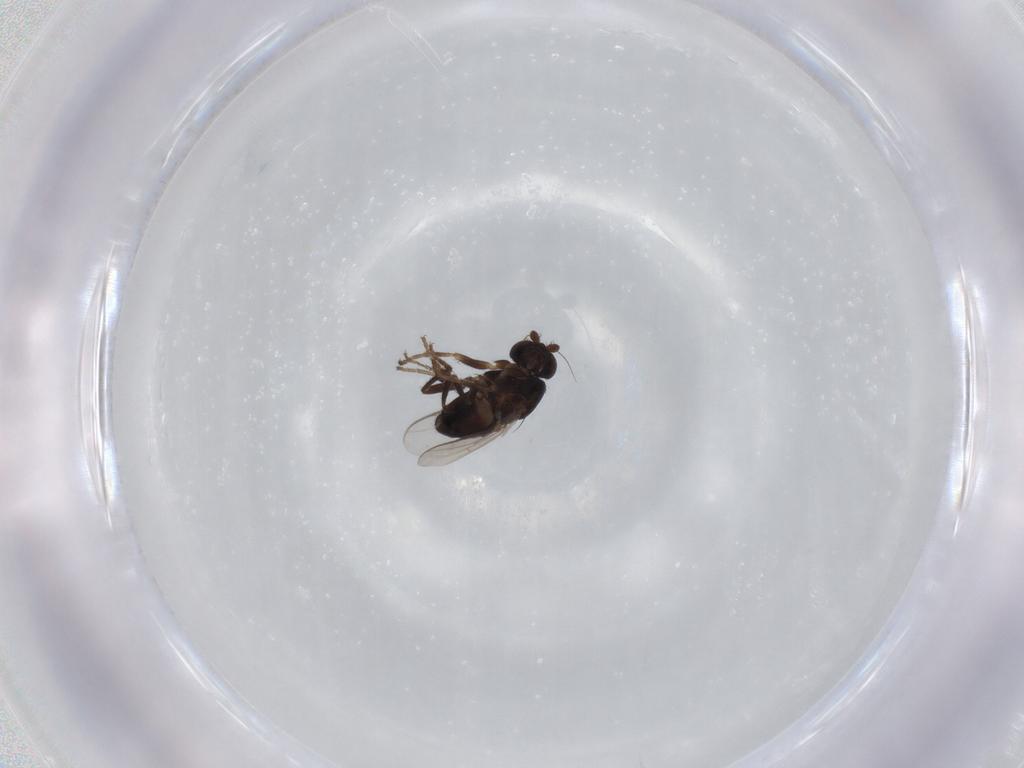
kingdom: Animalia
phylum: Arthropoda
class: Insecta
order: Diptera
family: Sphaeroceridae
